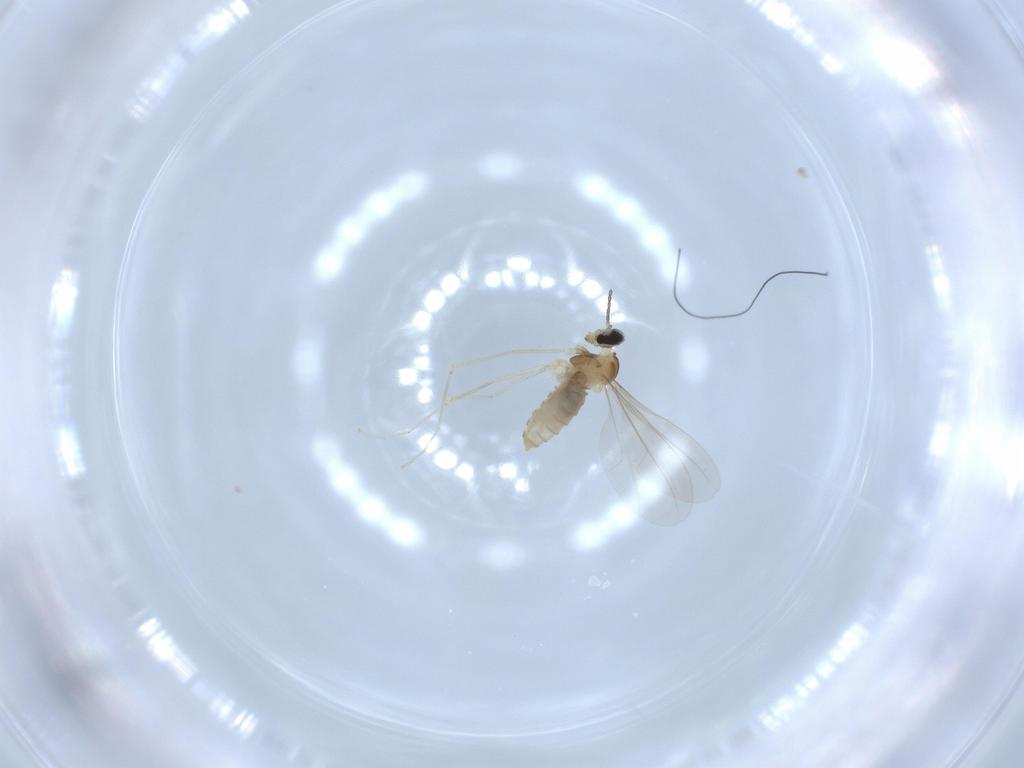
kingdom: Animalia
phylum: Arthropoda
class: Insecta
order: Diptera
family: Cecidomyiidae
